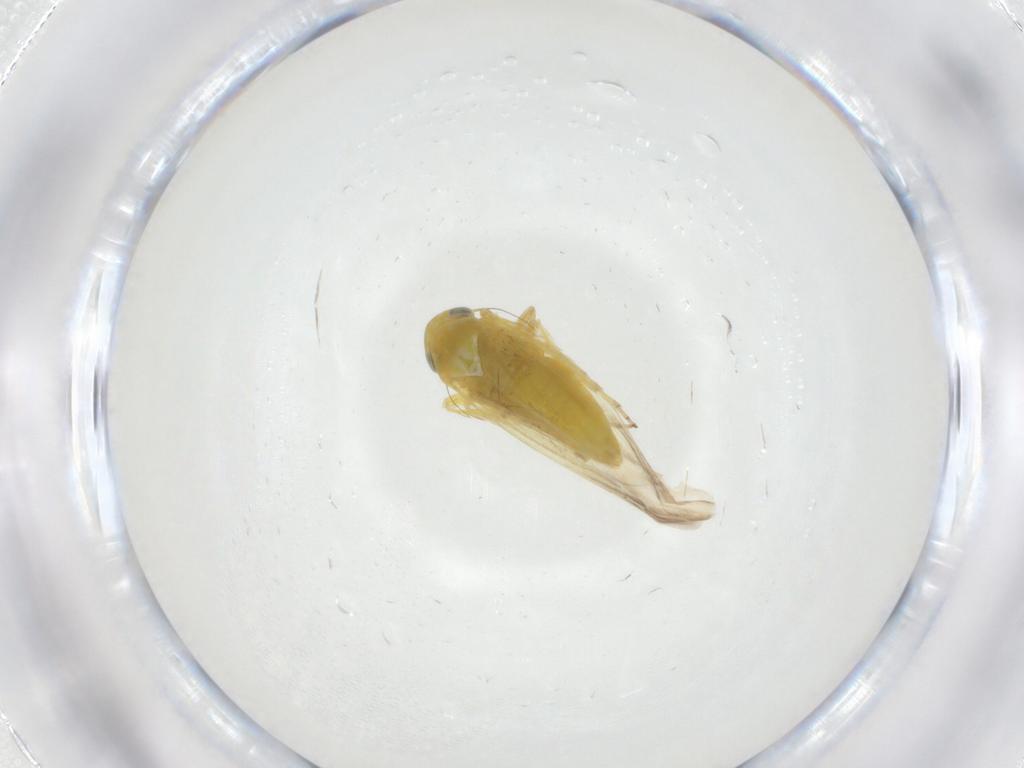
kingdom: Animalia
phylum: Arthropoda
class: Insecta
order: Hemiptera
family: Cicadellidae
